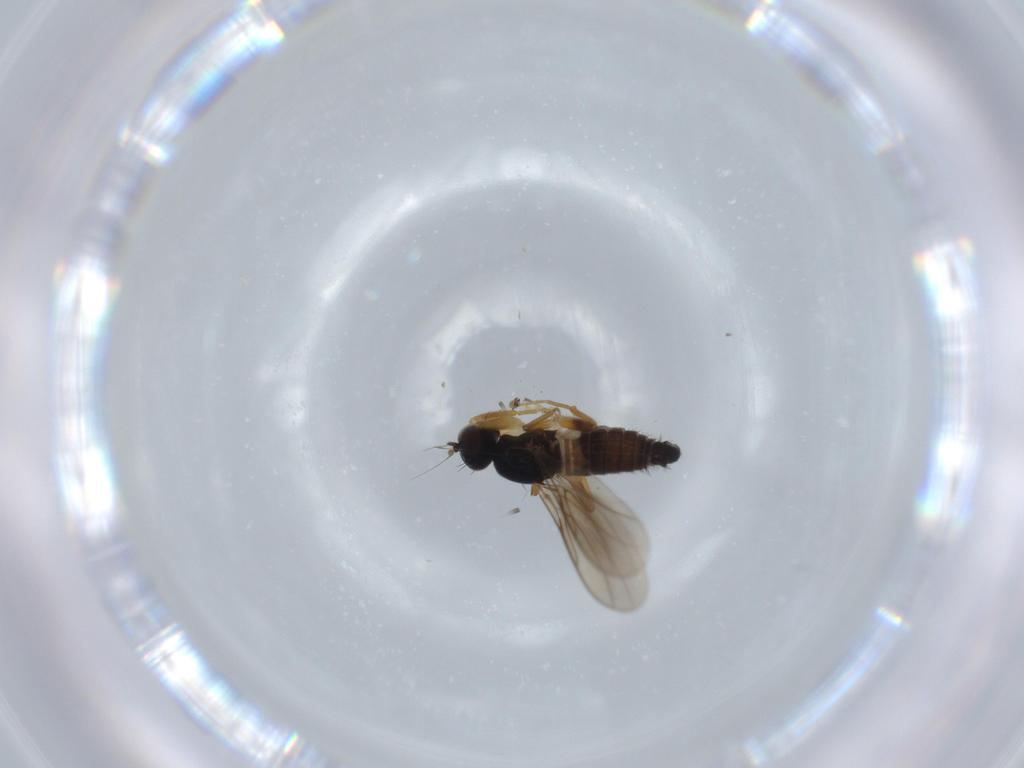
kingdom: Animalia
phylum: Arthropoda
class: Insecta
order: Diptera
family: Hybotidae
